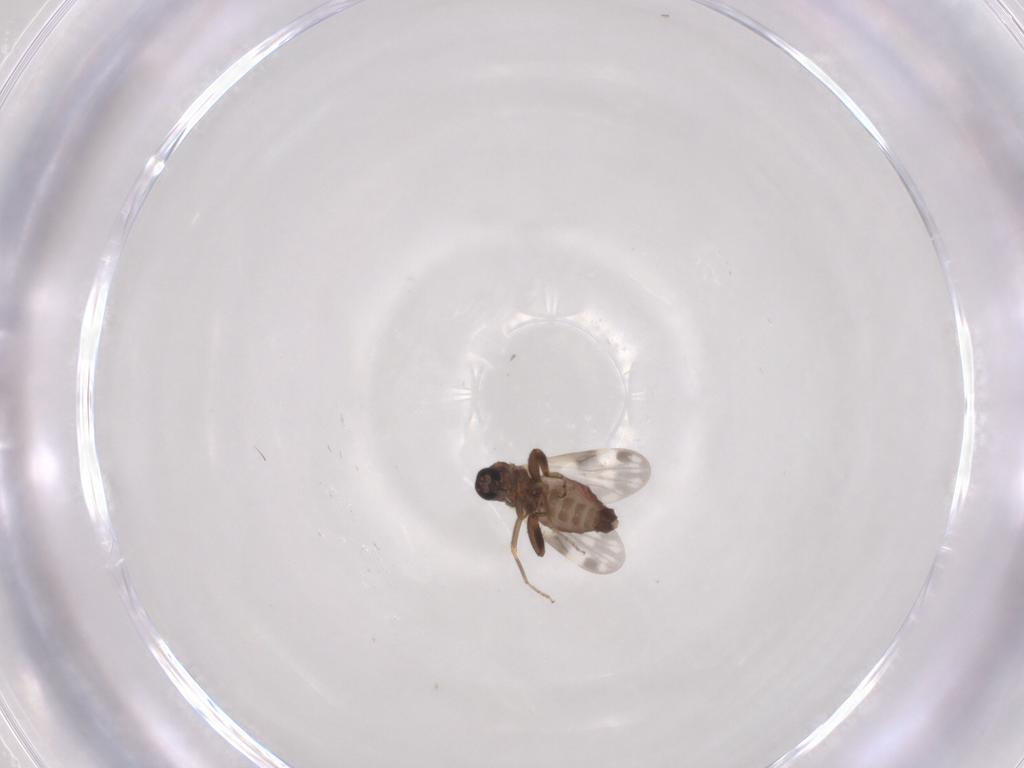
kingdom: Animalia
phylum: Arthropoda
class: Insecta
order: Diptera
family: Ceratopogonidae
